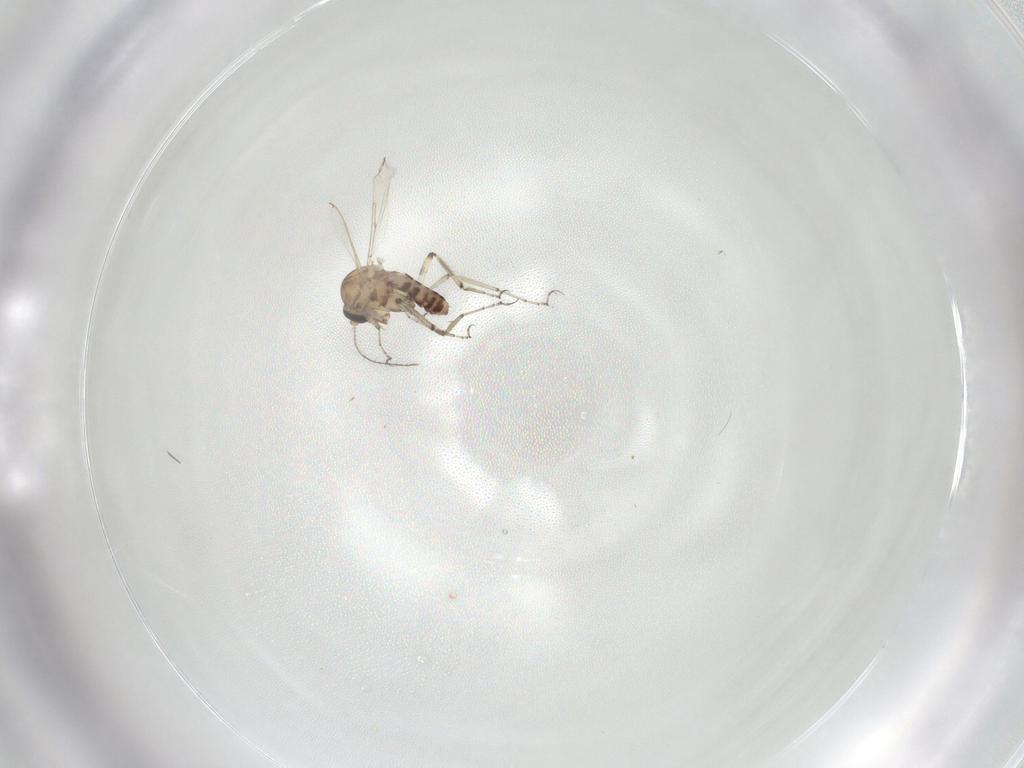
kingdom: Animalia
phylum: Arthropoda
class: Insecta
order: Diptera
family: Ceratopogonidae
